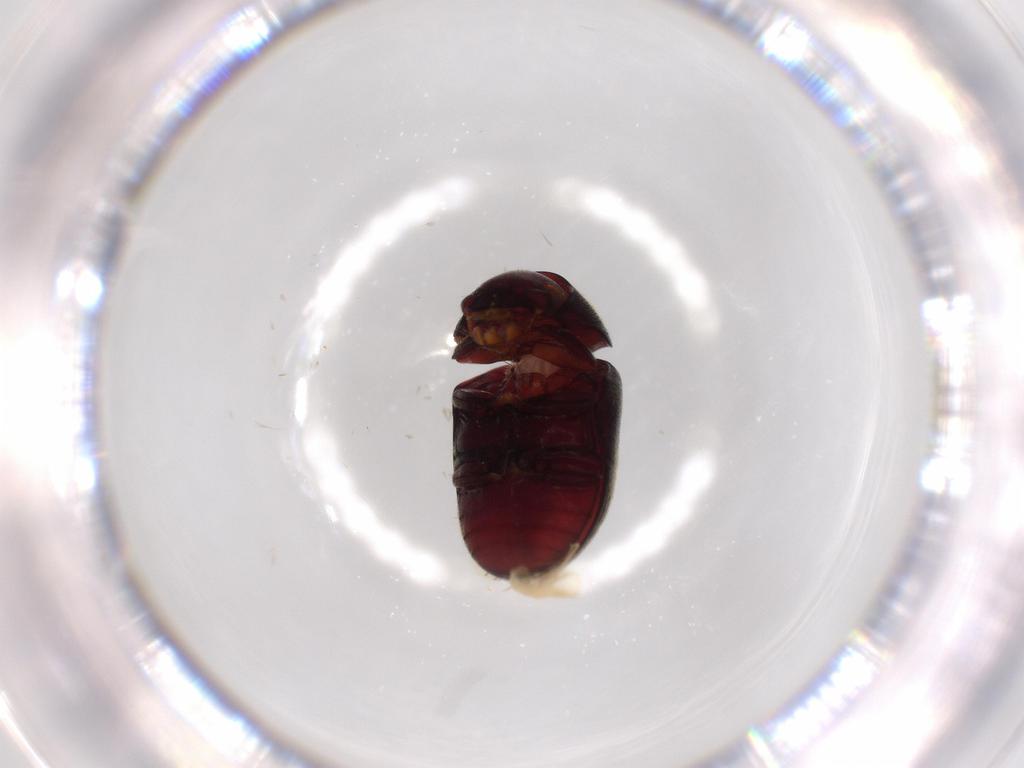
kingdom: Animalia
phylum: Arthropoda
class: Insecta
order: Coleoptera
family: Ptinidae
